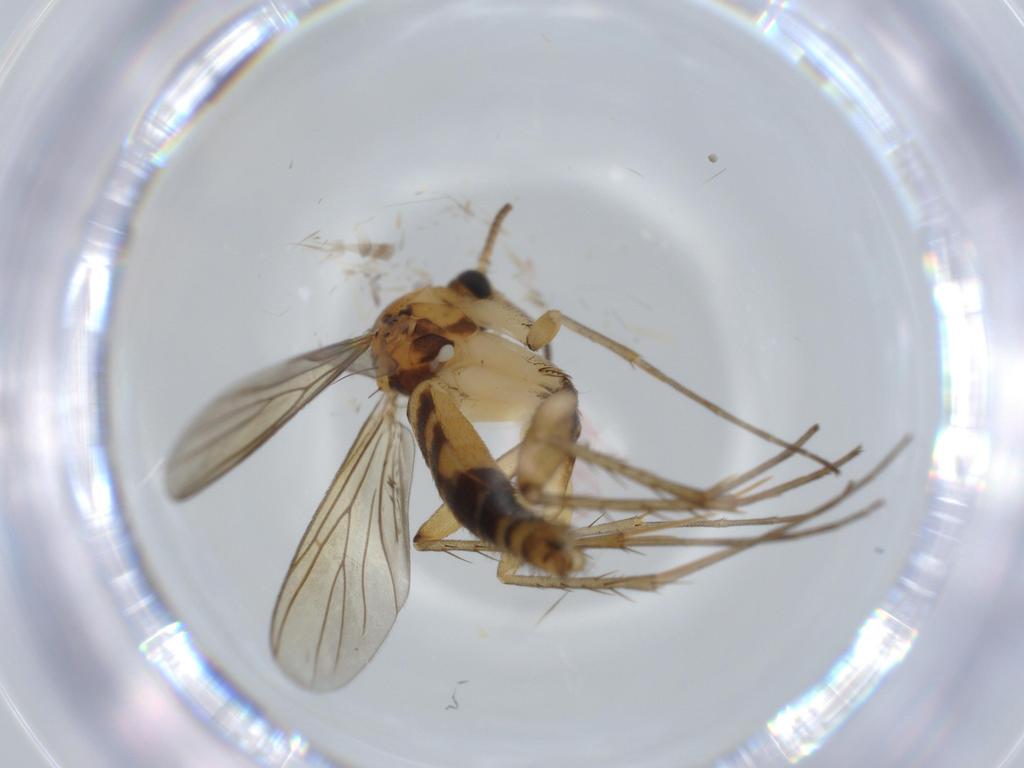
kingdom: Animalia
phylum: Arthropoda
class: Insecta
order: Diptera
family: Mycetophilidae
